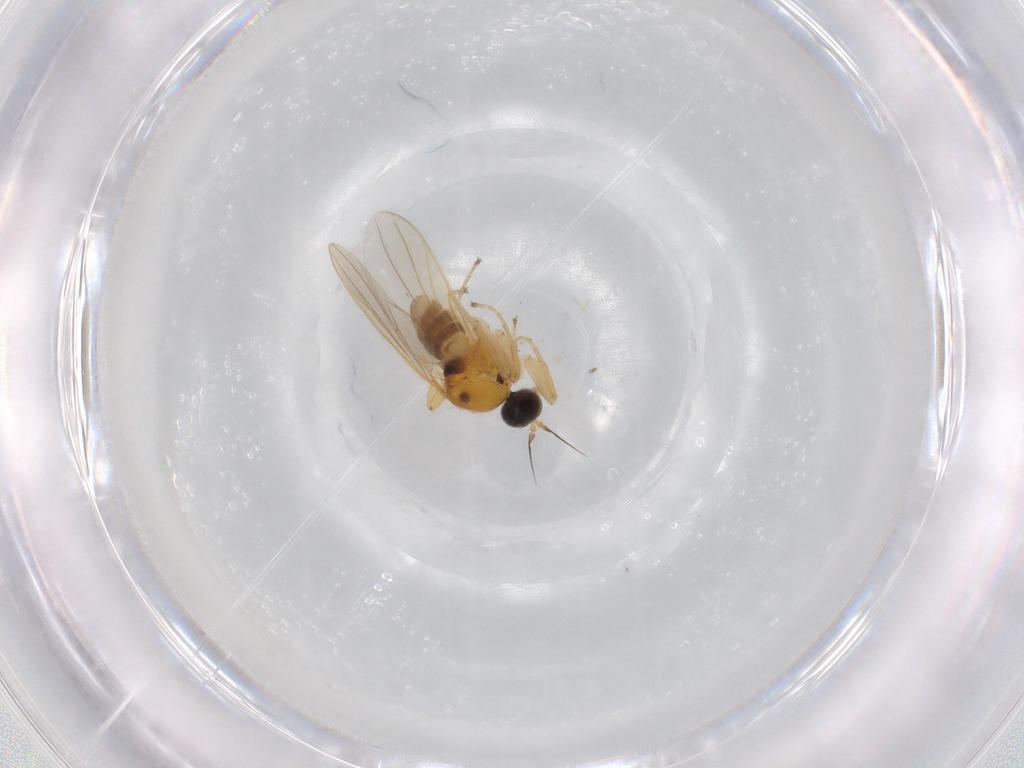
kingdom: Animalia
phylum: Arthropoda
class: Insecta
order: Diptera
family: Hybotidae
